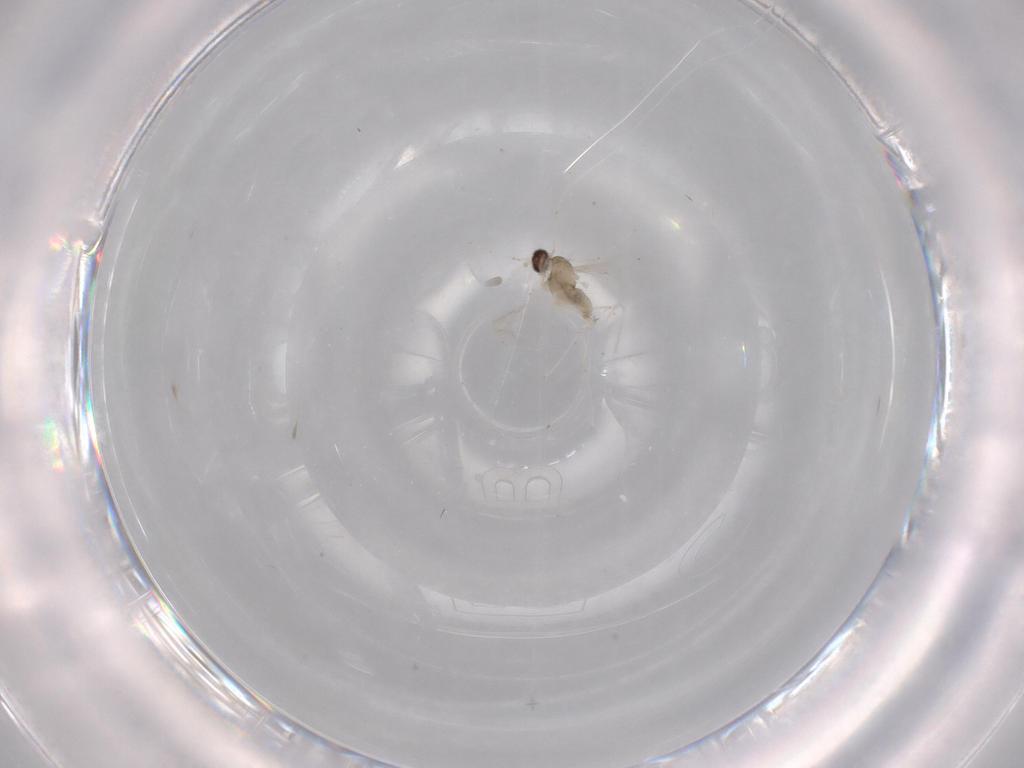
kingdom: Animalia
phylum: Arthropoda
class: Insecta
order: Diptera
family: Cecidomyiidae
